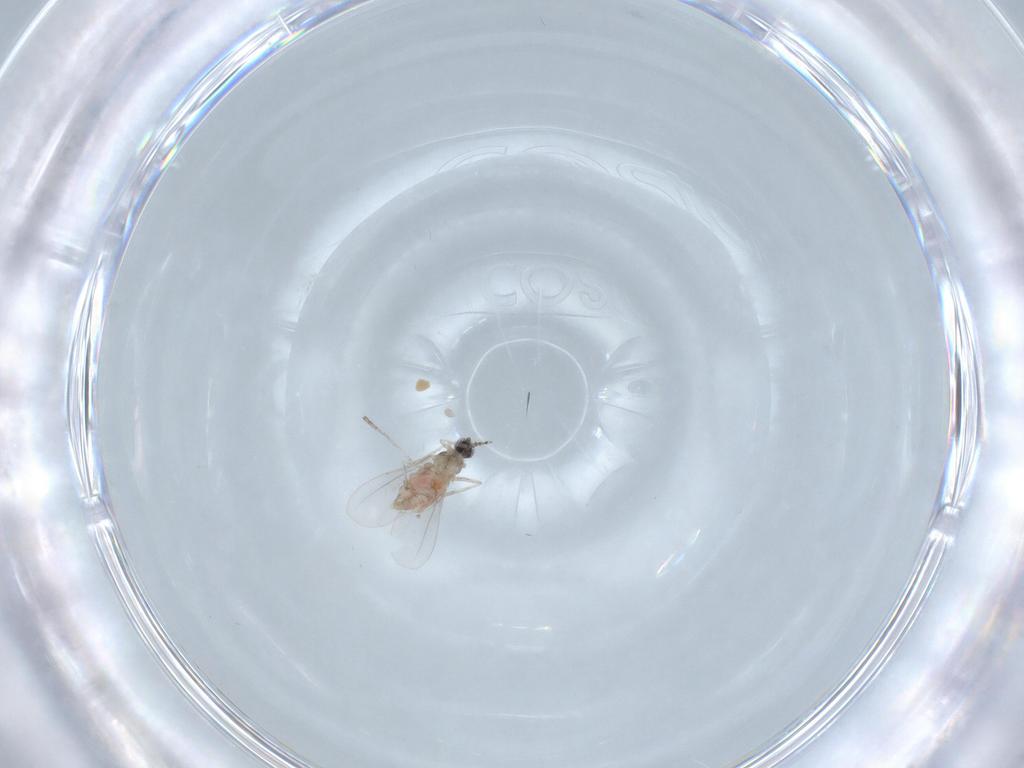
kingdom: Animalia
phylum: Arthropoda
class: Insecta
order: Diptera
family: Cecidomyiidae
